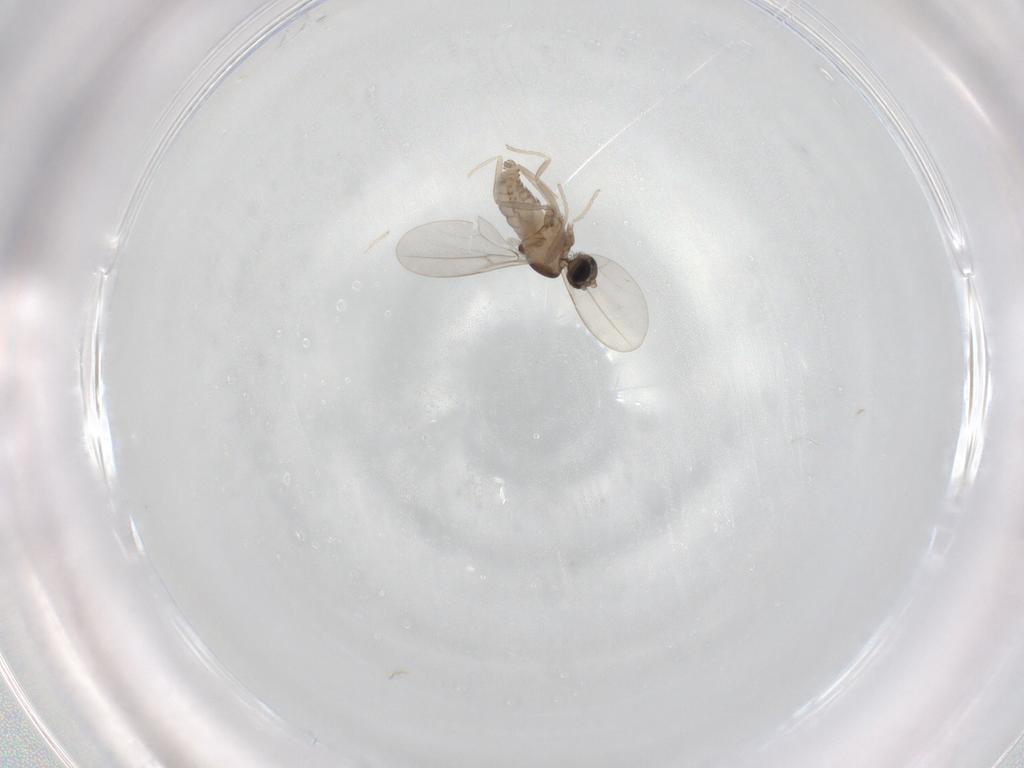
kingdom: Animalia
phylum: Arthropoda
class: Insecta
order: Diptera
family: Cecidomyiidae
